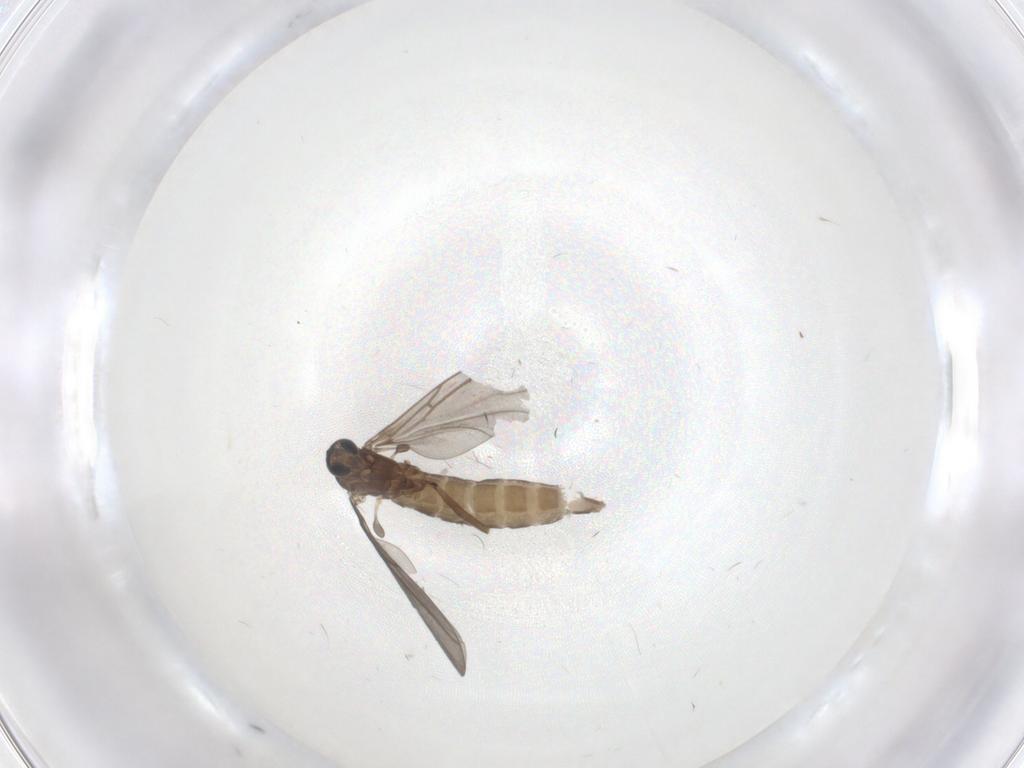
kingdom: Animalia
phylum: Arthropoda
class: Insecta
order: Diptera
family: Sciaridae
